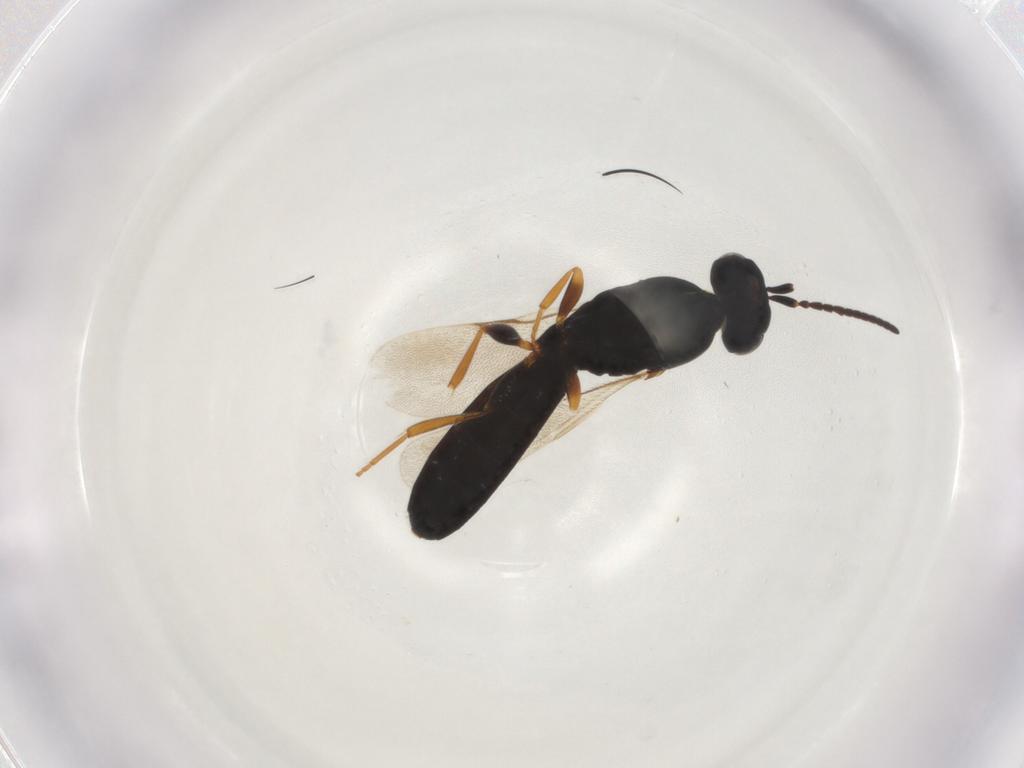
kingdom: Animalia
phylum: Arthropoda
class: Insecta
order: Hymenoptera
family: Scelionidae
